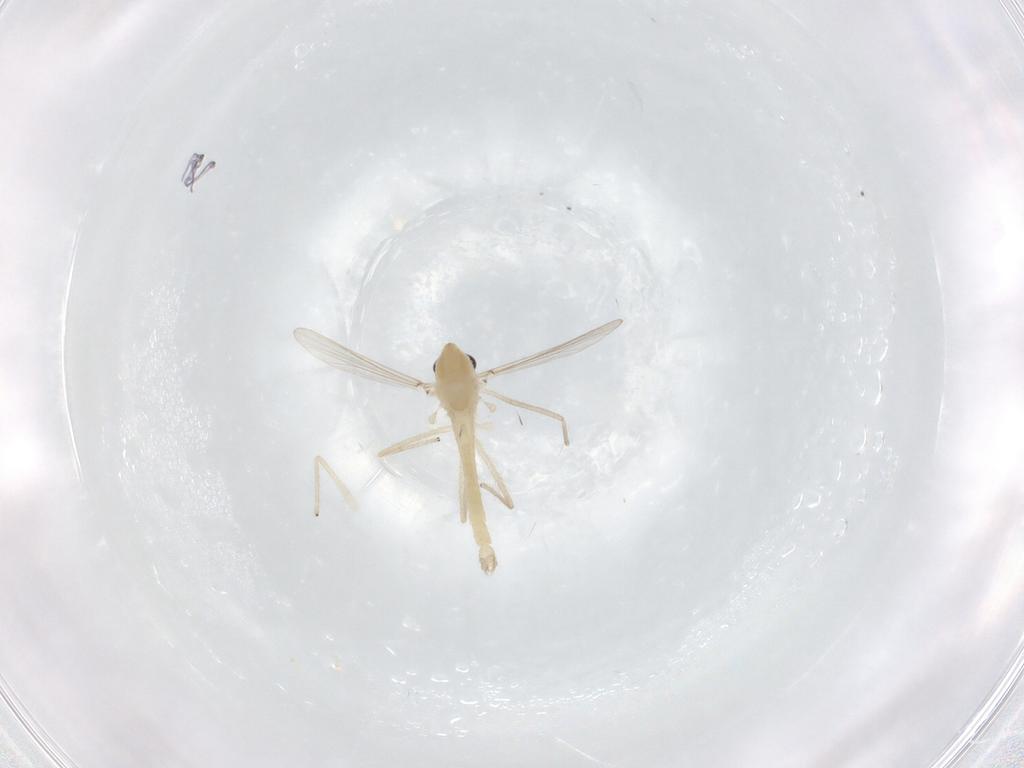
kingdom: Animalia
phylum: Arthropoda
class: Insecta
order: Diptera
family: Chironomidae
